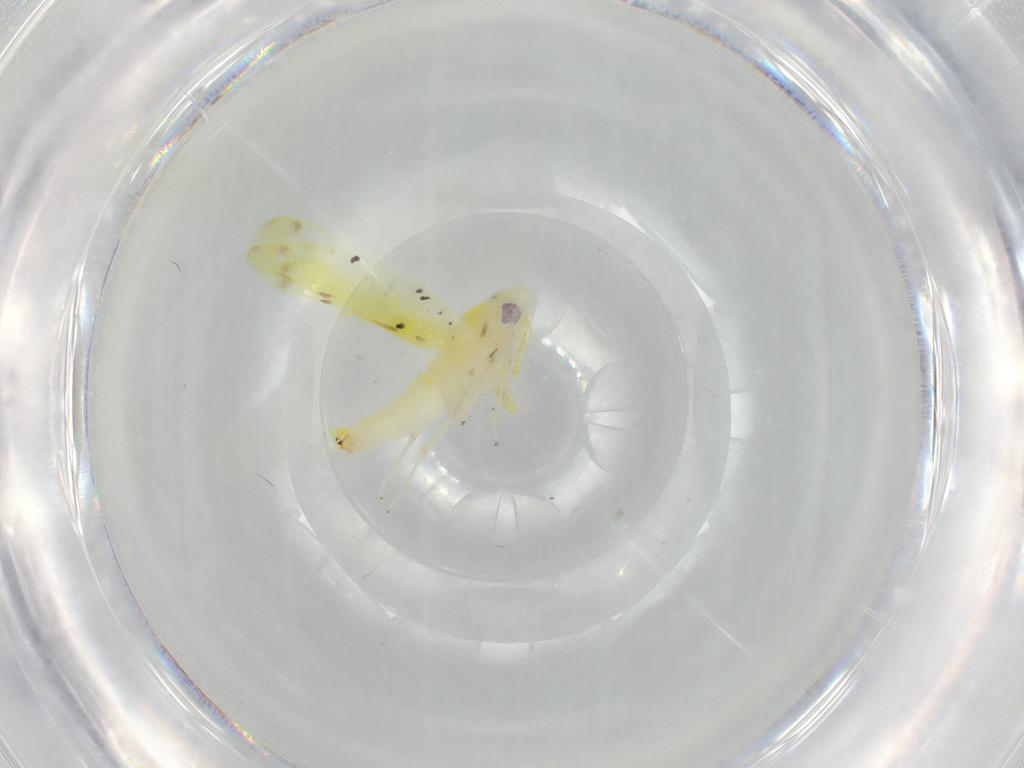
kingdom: Animalia
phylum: Arthropoda
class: Insecta
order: Hemiptera
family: Cicadellidae
